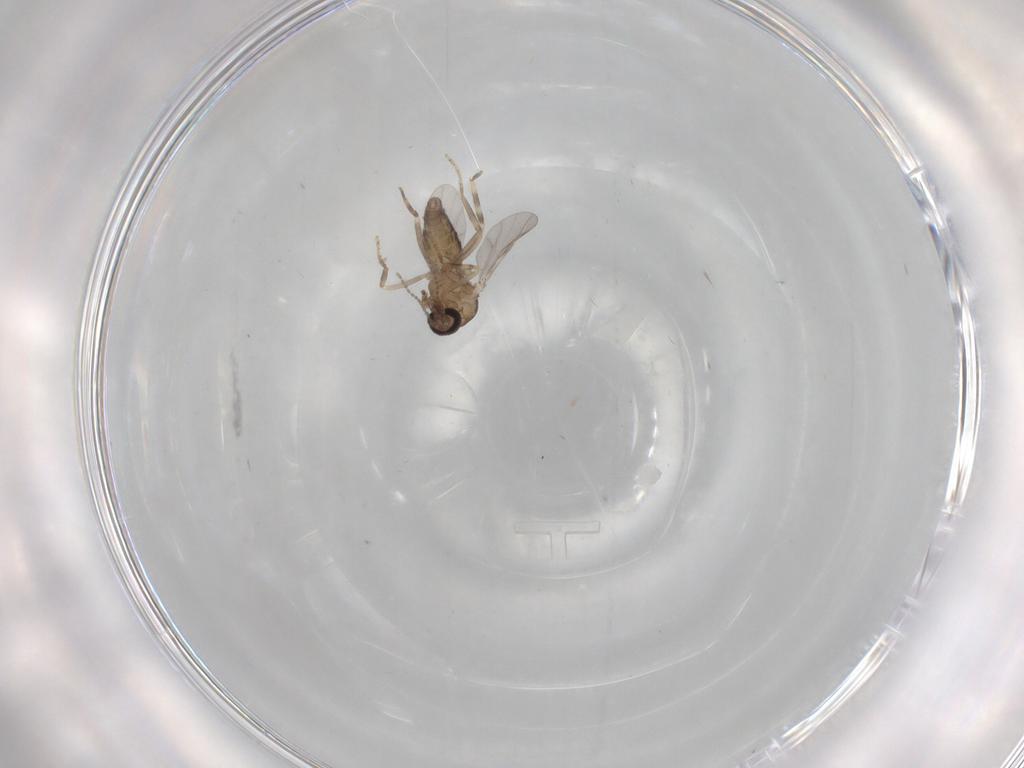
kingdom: Animalia
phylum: Arthropoda
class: Insecta
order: Diptera
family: Ceratopogonidae
